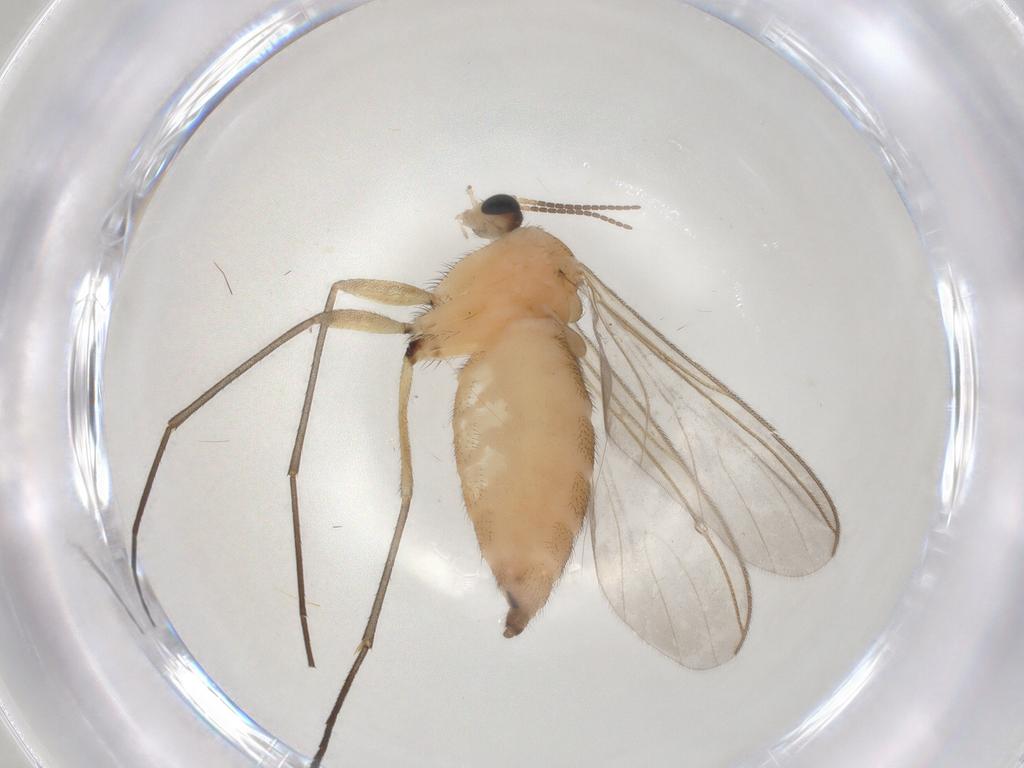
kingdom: Animalia
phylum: Arthropoda
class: Insecta
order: Diptera
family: Sciaridae
